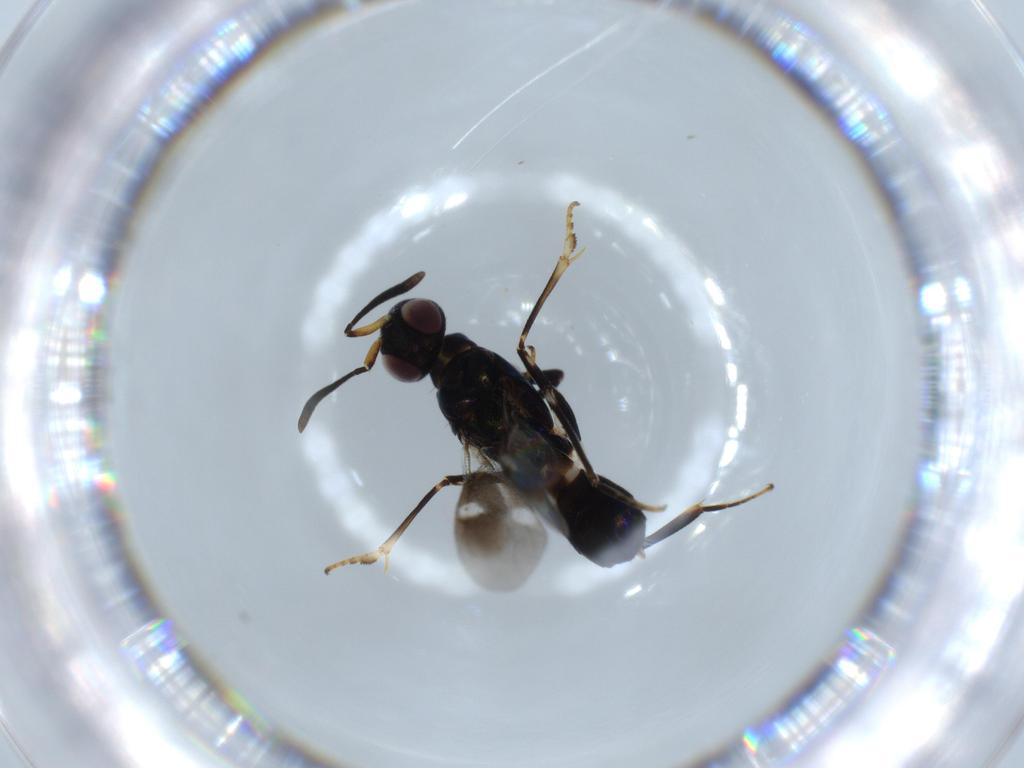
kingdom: Animalia
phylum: Arthropoda
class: Insecta
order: Hymenoptera
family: Eupelmidae
